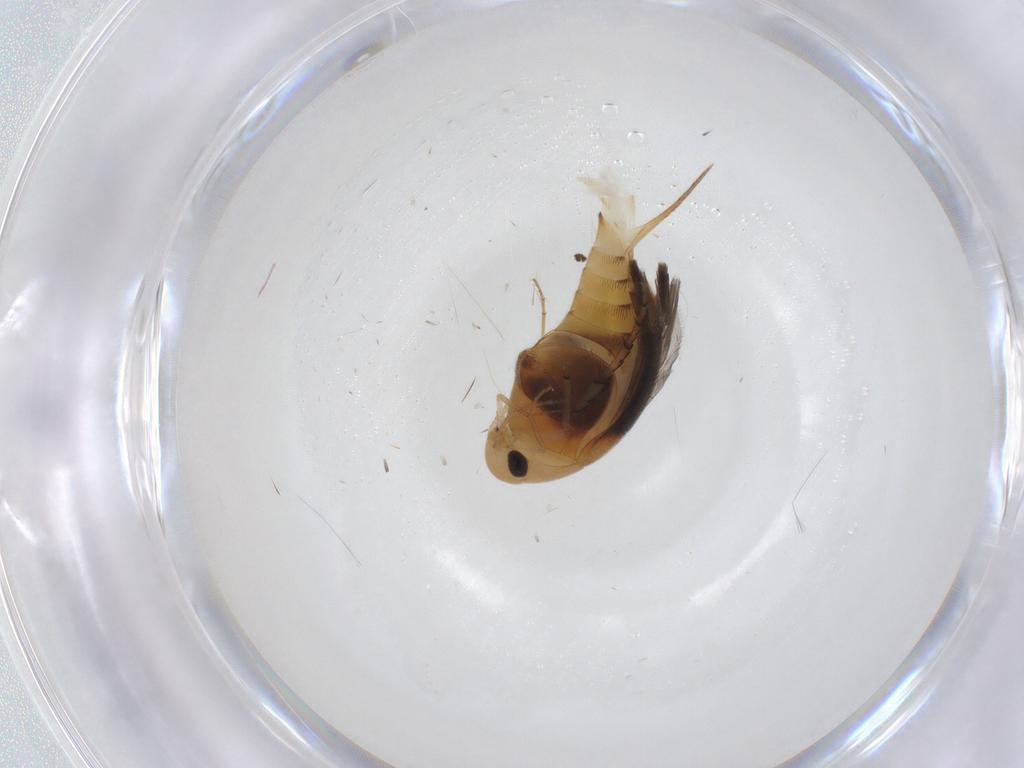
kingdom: Animalia
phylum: Arthropoda
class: Insecta
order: Coleoptera
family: Mordellidae
